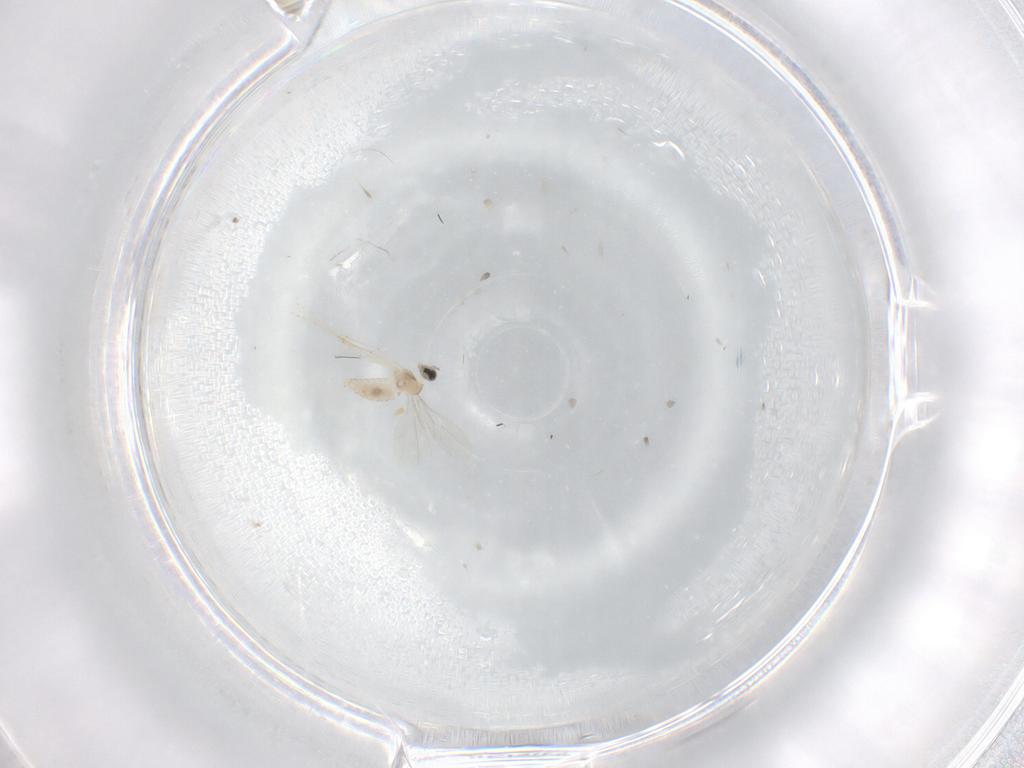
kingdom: Animalia
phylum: Arthropoda
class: Insecta
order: Diptera
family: Cecidomyiidae
